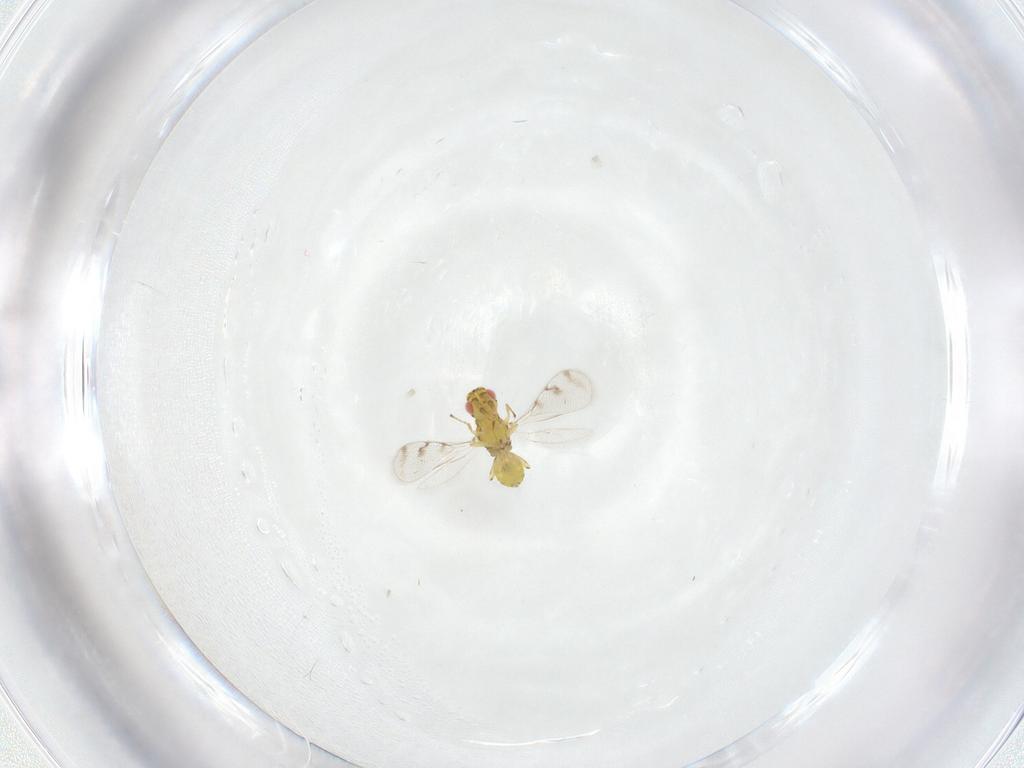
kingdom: Animalia
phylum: Arthropoda
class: Insecta
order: Hymenoptera
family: Eulophidae
